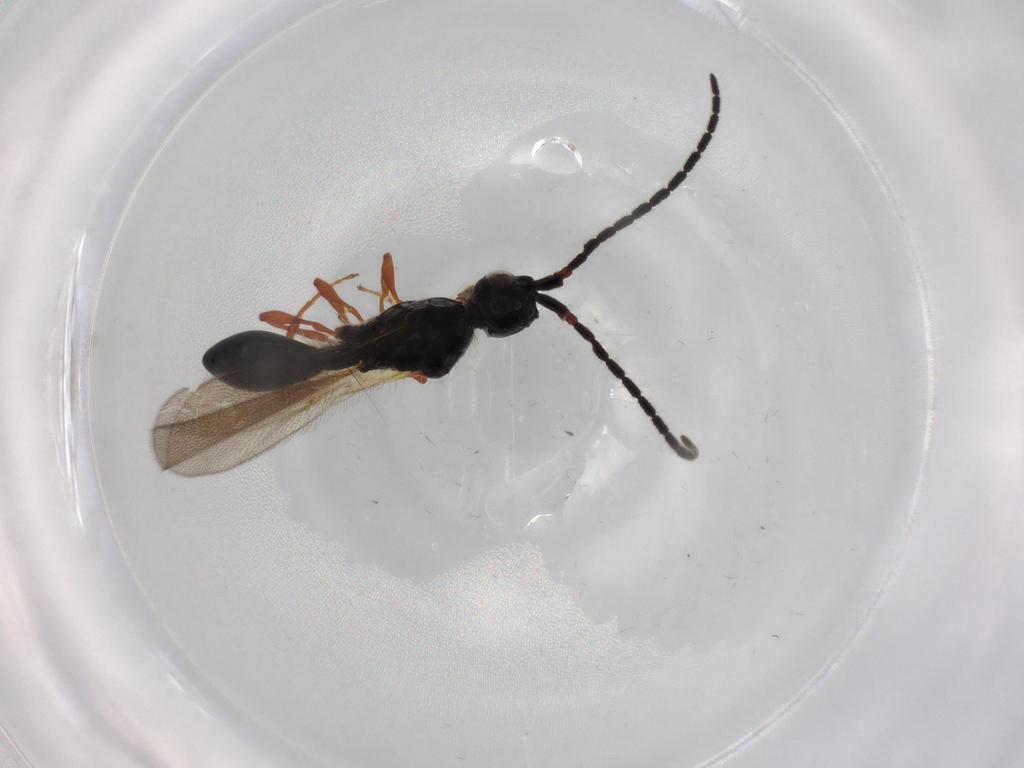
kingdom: Animalia
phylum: Arthropoda
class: Insecta
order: Hymenoptera
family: Diapriidae
